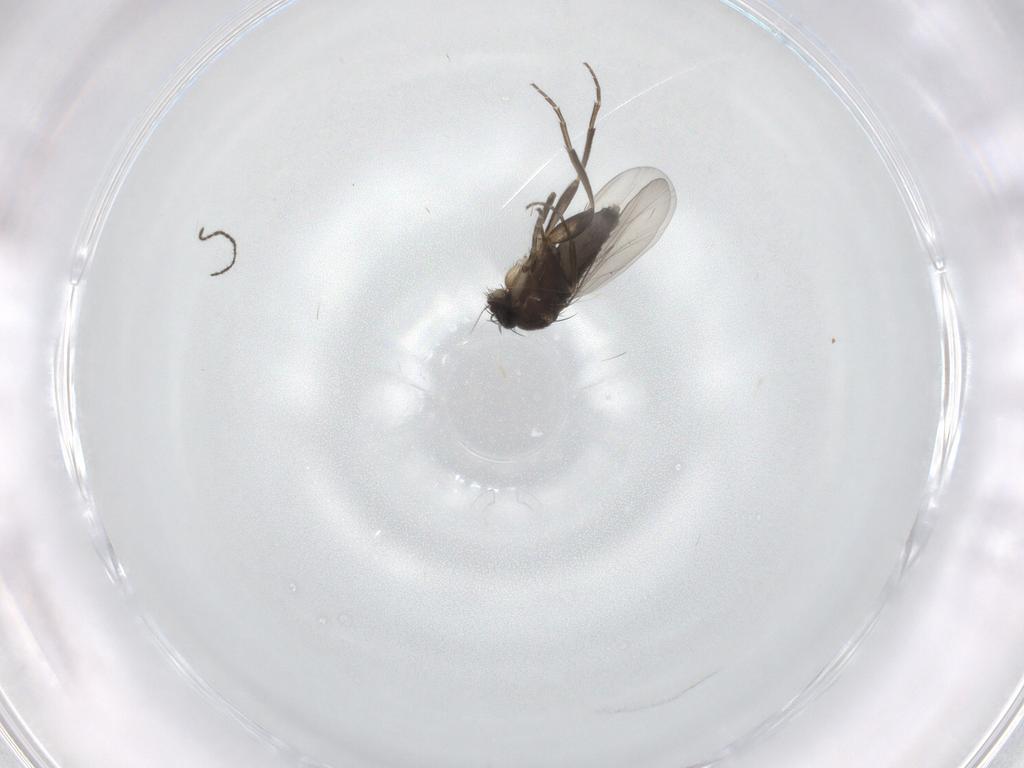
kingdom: Animalia
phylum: Arthropoda
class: Insecta
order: Diptera
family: Phoridae
